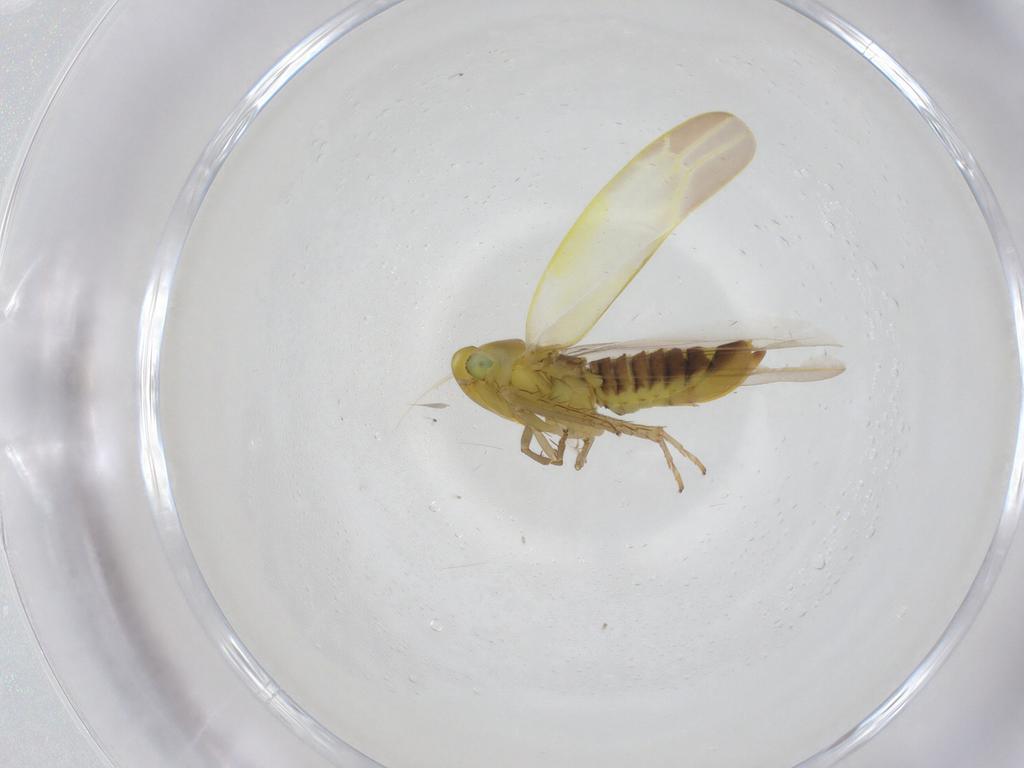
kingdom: Animalia
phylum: Arthropoda
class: Insecta
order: Hemiptera
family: Cicadellidae
